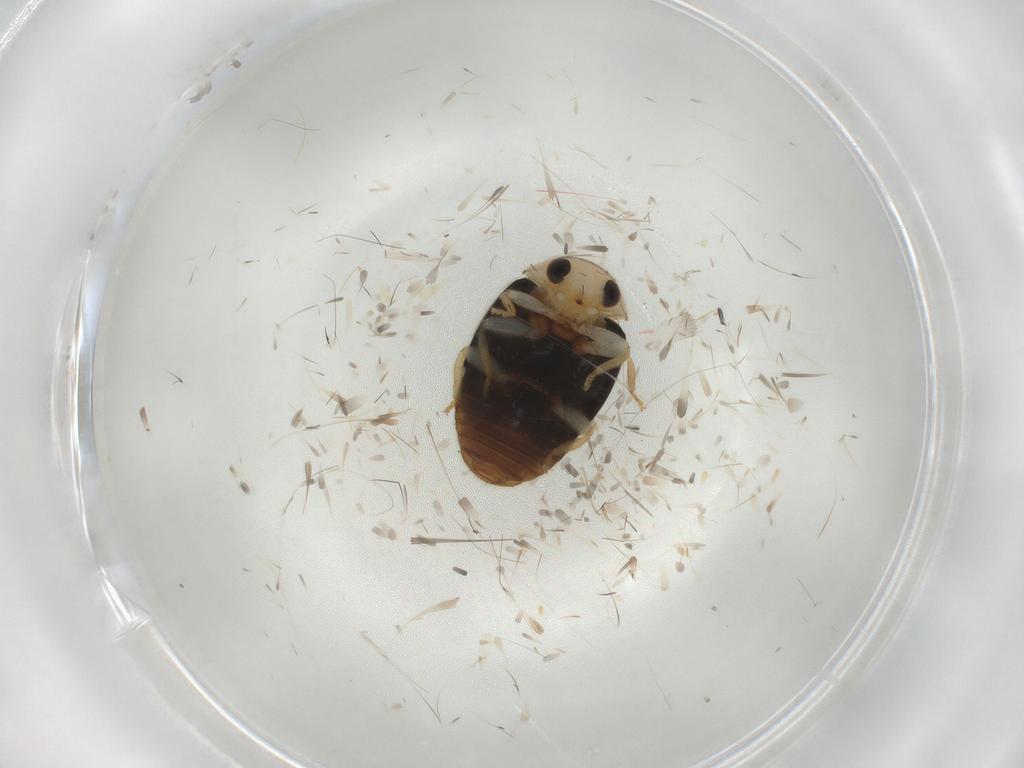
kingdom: Animalia
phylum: Arthropoda
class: Insecta
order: Coleoptera
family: Coccinellidae
